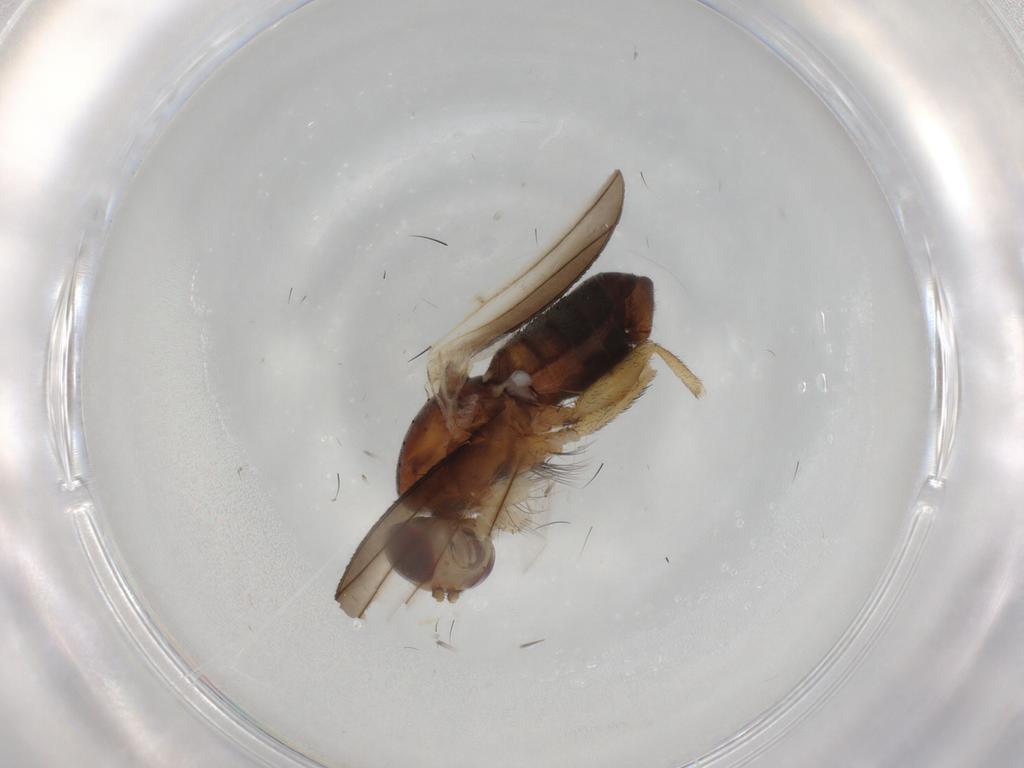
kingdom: Animalia
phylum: Arthropoda
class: Insecta
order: Diptera
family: Heleomyzidae
